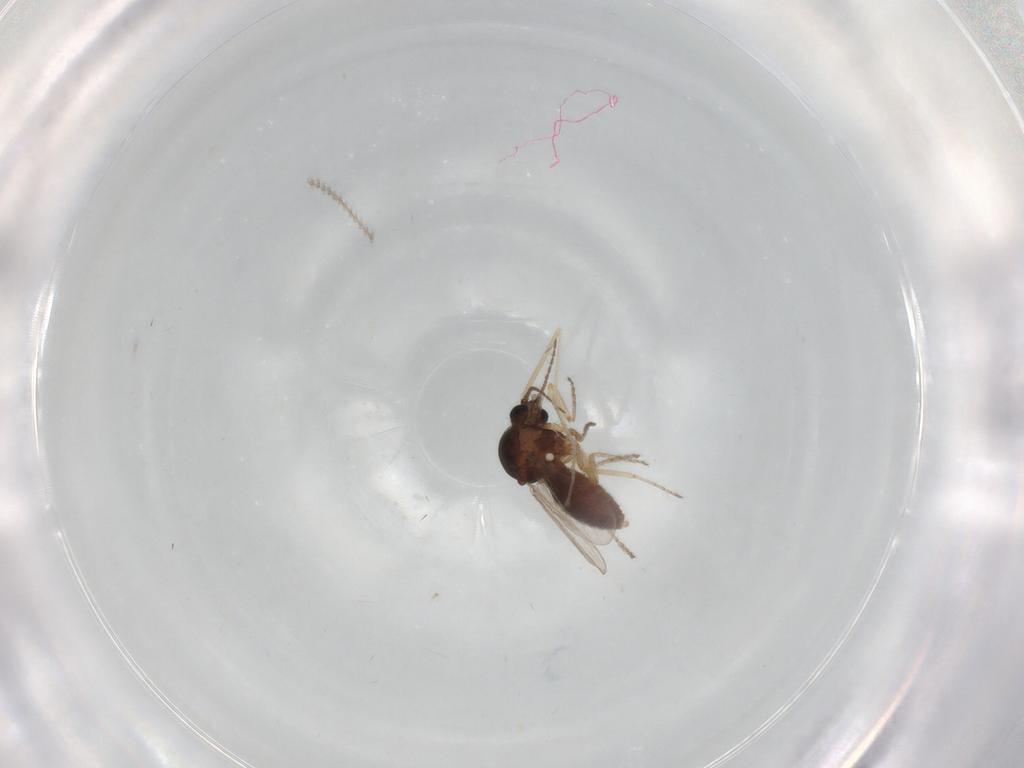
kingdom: Animalia
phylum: Arthropoda
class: Insecta
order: Diptera
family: Ceratopogonidae
